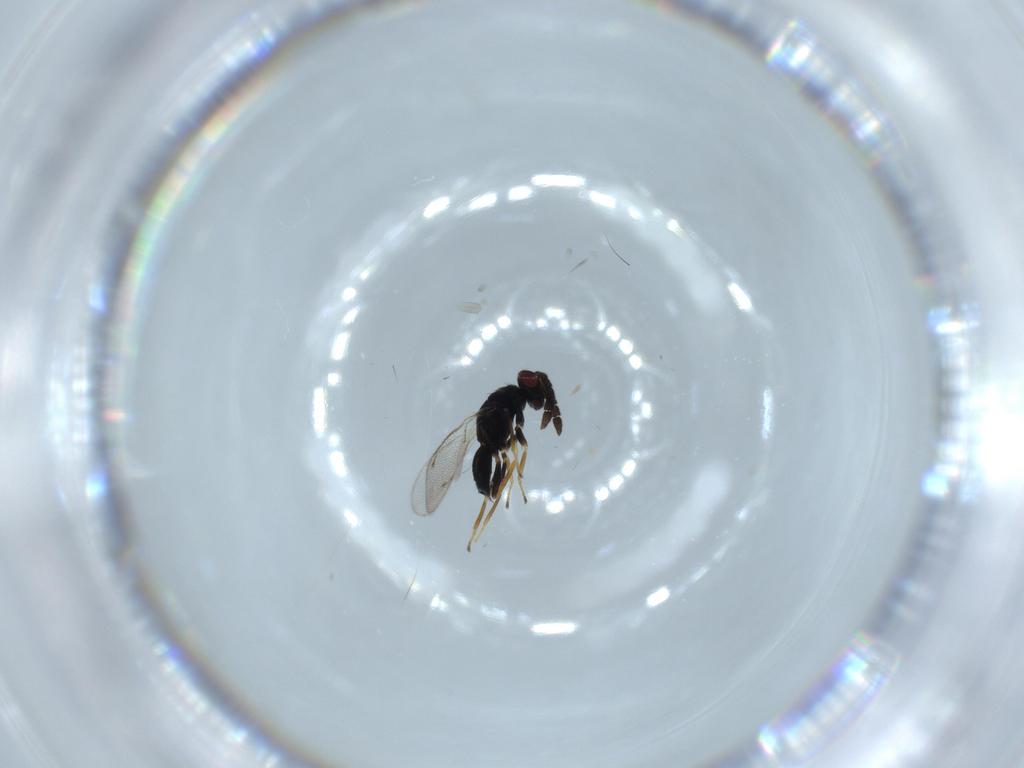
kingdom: Animalia
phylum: Arthropoda
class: Insecta
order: Hymenoptera
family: Eulophidae
